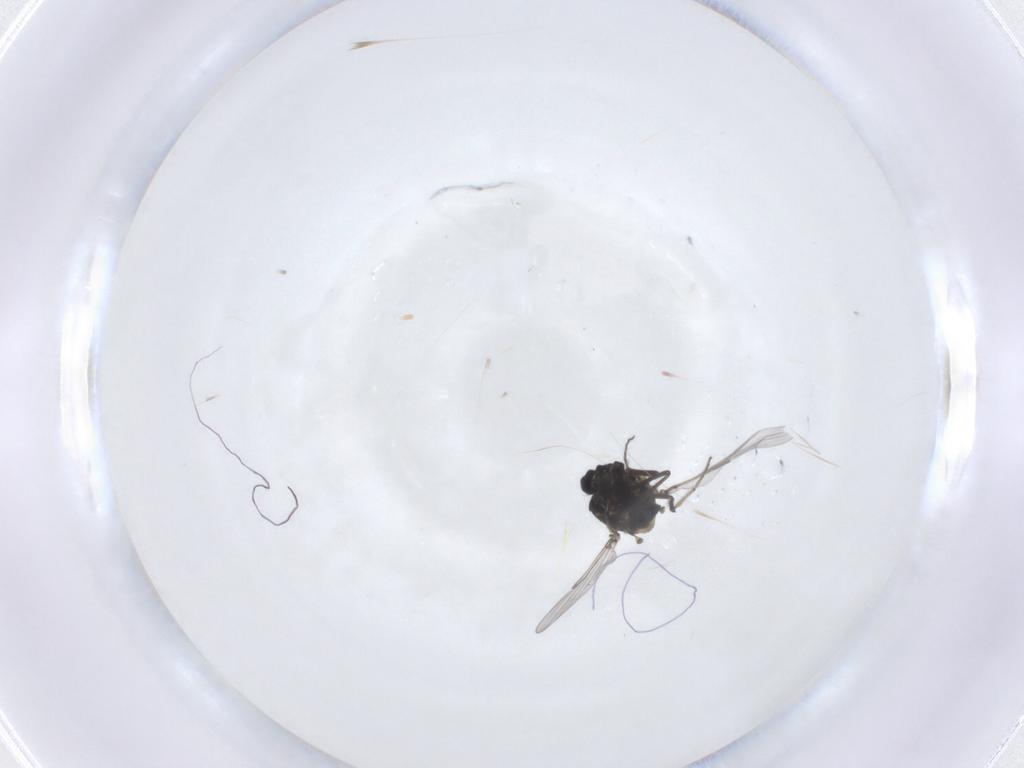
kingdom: Animalia
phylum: Arthropoda
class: Insecta
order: Diptera
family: Ceratopogonidae
